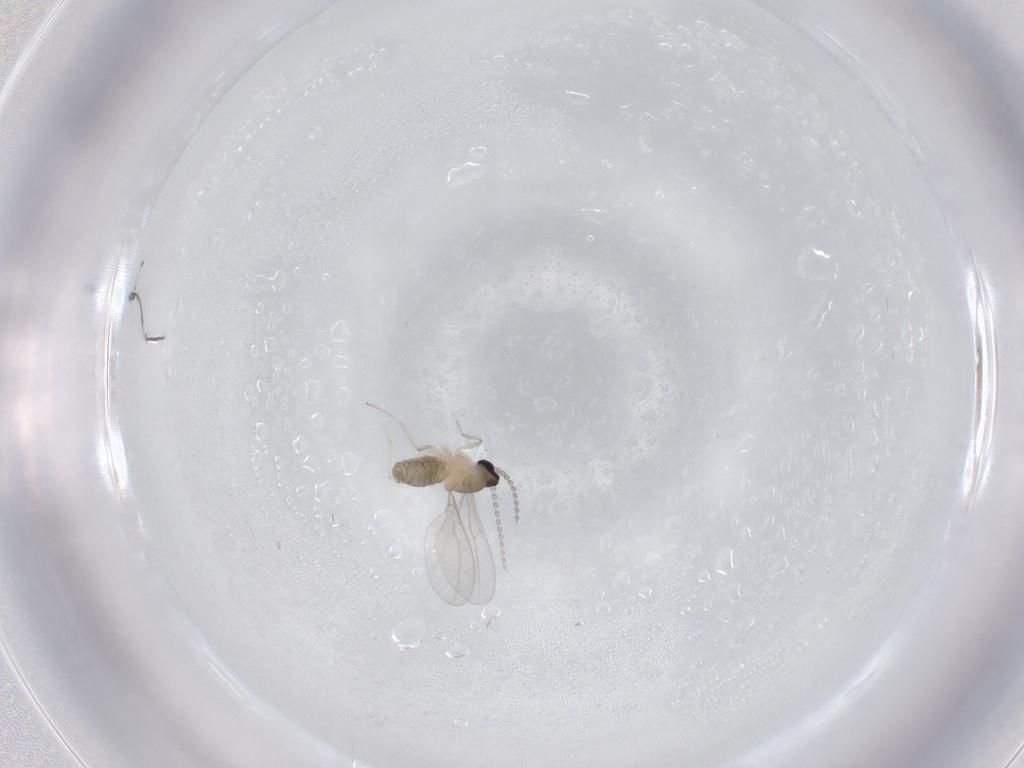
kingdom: Animalia
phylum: Arthropoda
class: Insecta
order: Diptera
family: Cecidomyiidae
